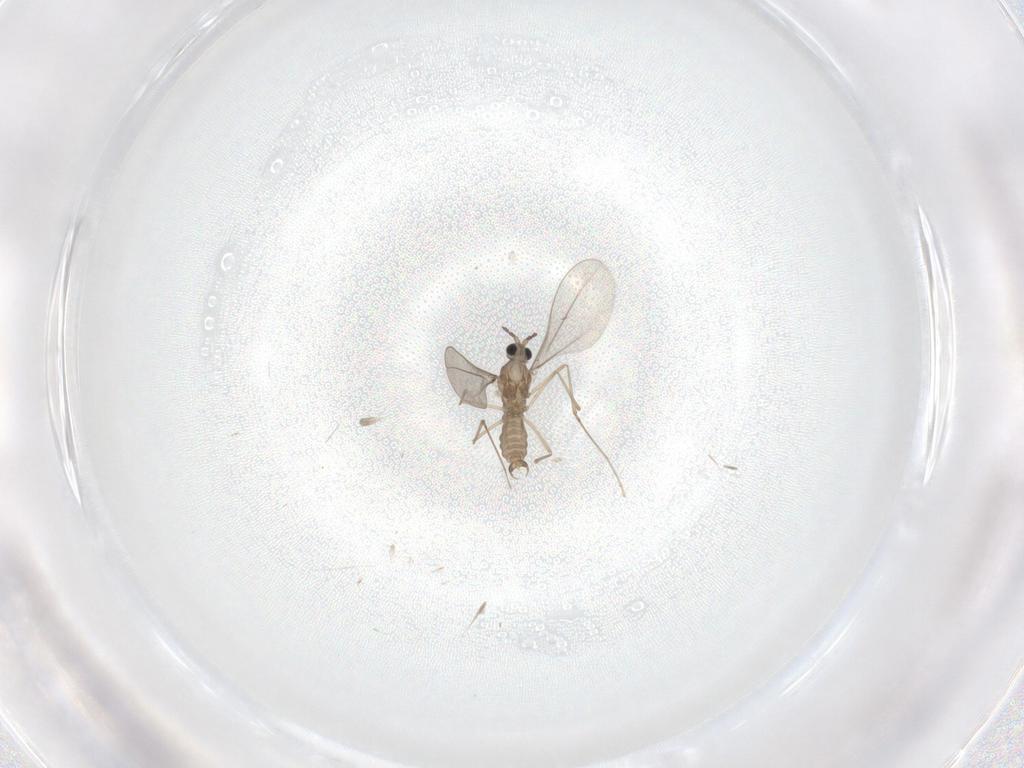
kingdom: Animalia
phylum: Arthropoda
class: Insecta
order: Diptera
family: Cecidomyiidae
